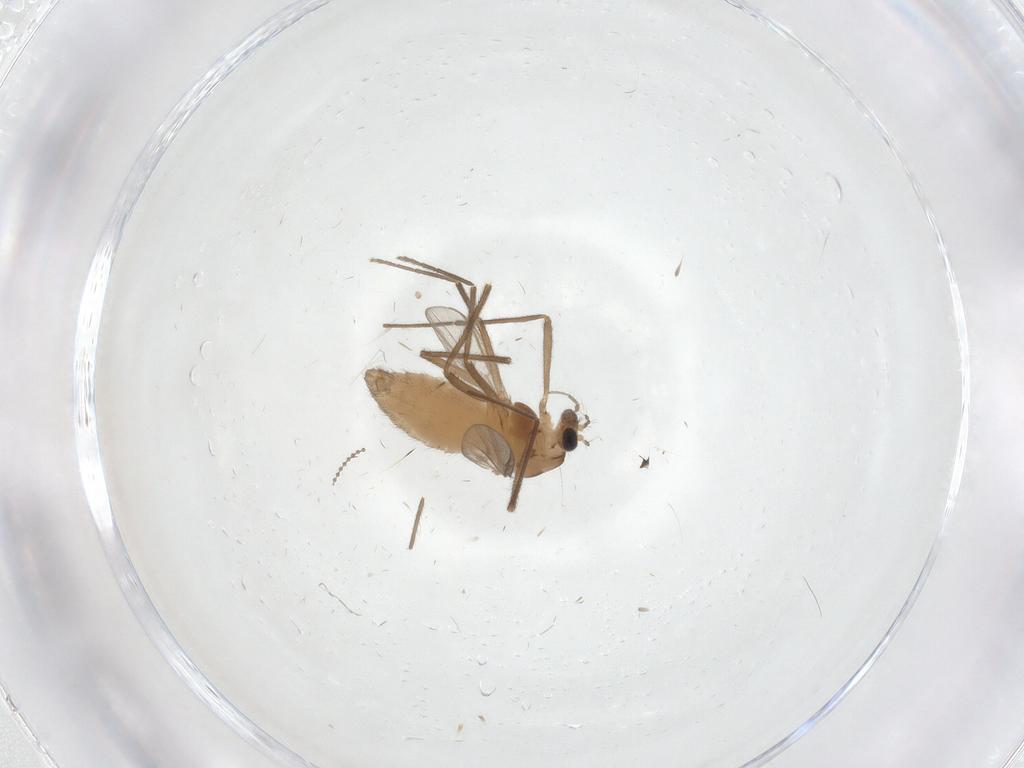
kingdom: Animalia
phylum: Arthropoda
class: Insecta
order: Diptera
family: Chironomidae
